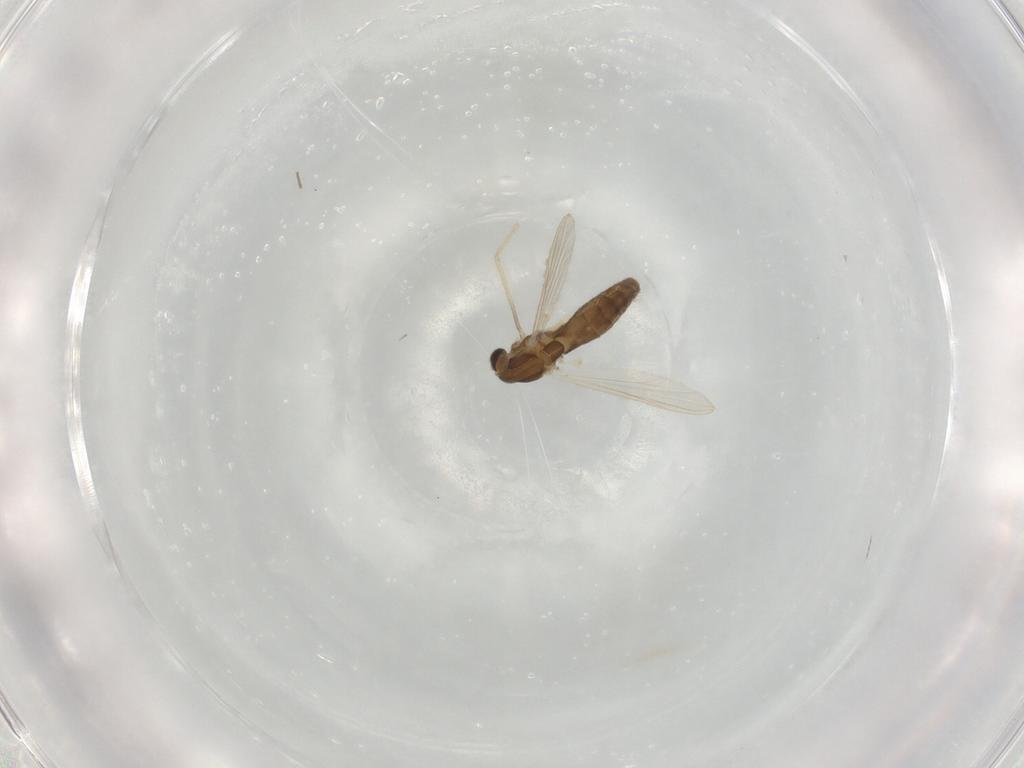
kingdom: Animalia
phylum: Arthropoda
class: Insecta
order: Diptera
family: Chironomidae
